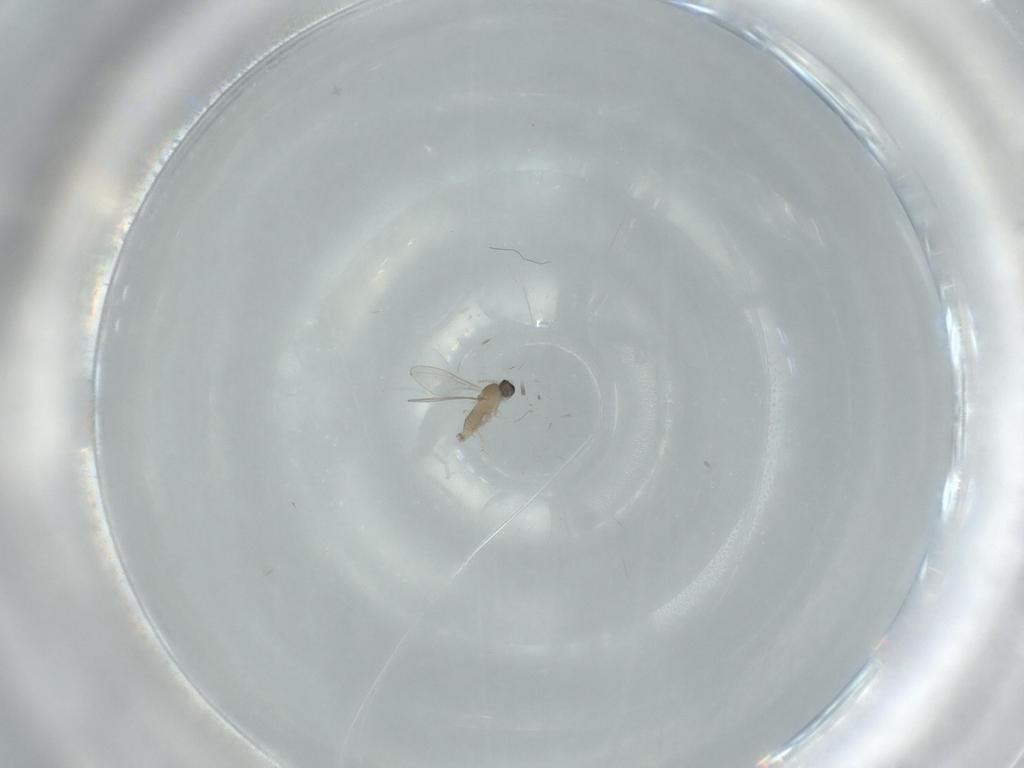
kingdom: Animalia
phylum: Arthropoda
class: Insecta
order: Diptera
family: Cecidomyiidae
